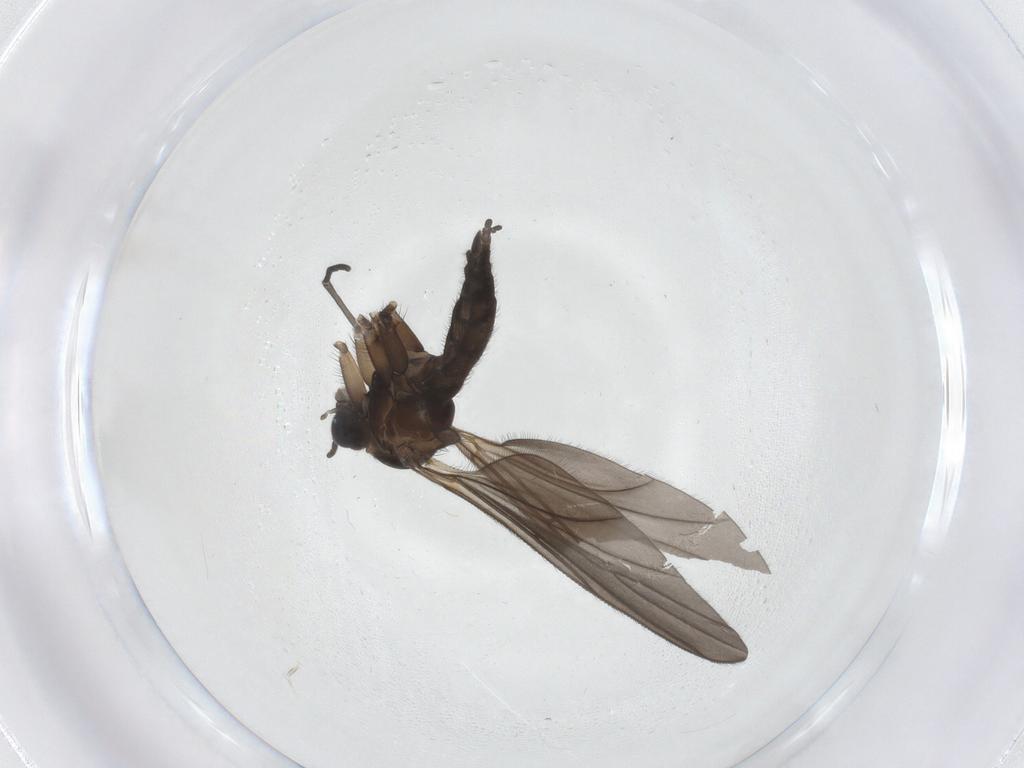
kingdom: Animalia
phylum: Arthropoda
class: Insecta
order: Diptera
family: Sciaridae
